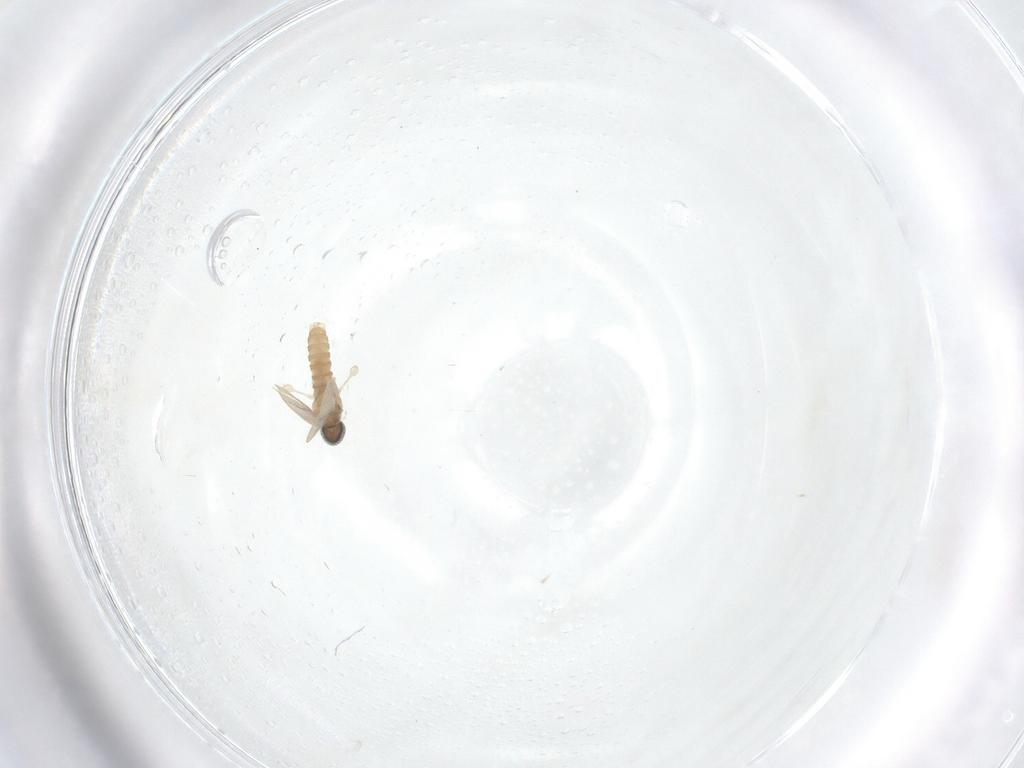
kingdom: Animalia
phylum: Arthropoda
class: Insecta
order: Diptera
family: Cecidomyiidae
